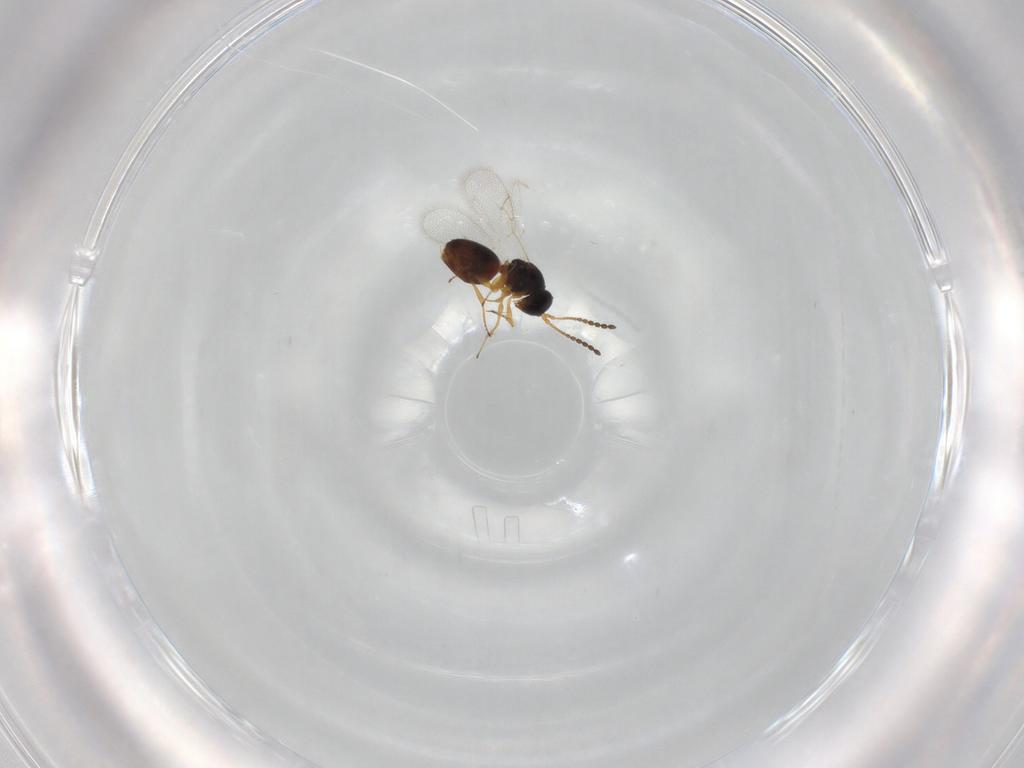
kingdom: Animalia
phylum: Arthropoda
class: Insecta
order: Hymenoptera
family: Figitidae
